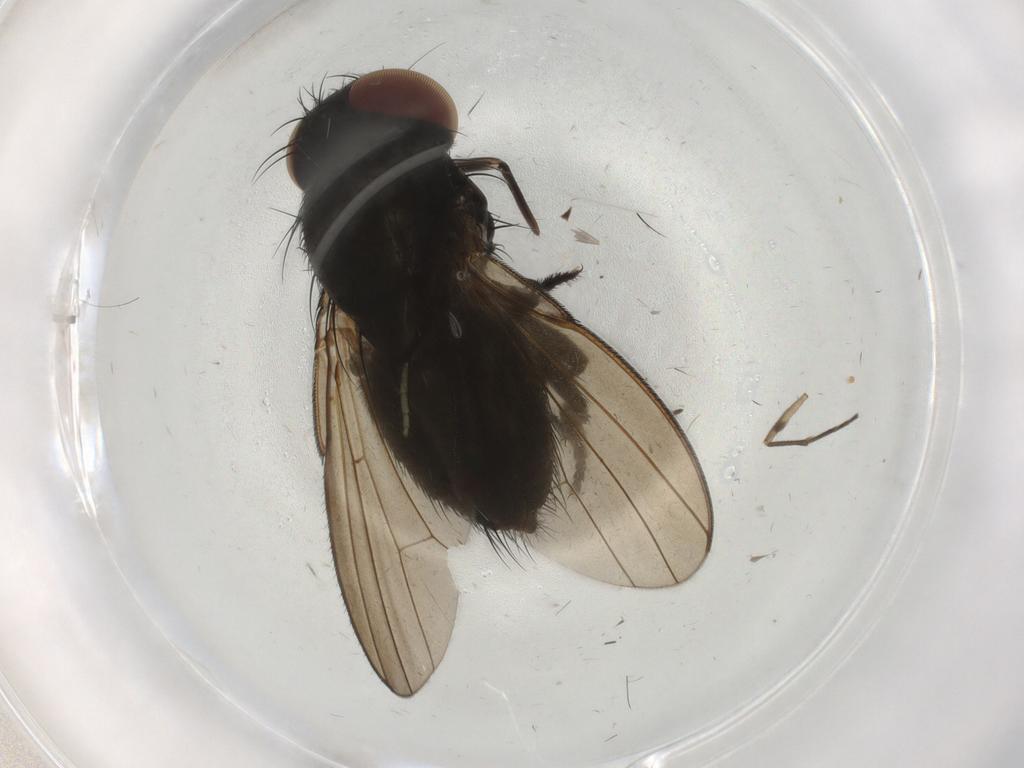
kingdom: Animalia
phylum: Arthropoda
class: Insecta
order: Diptera
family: Milichiidae
